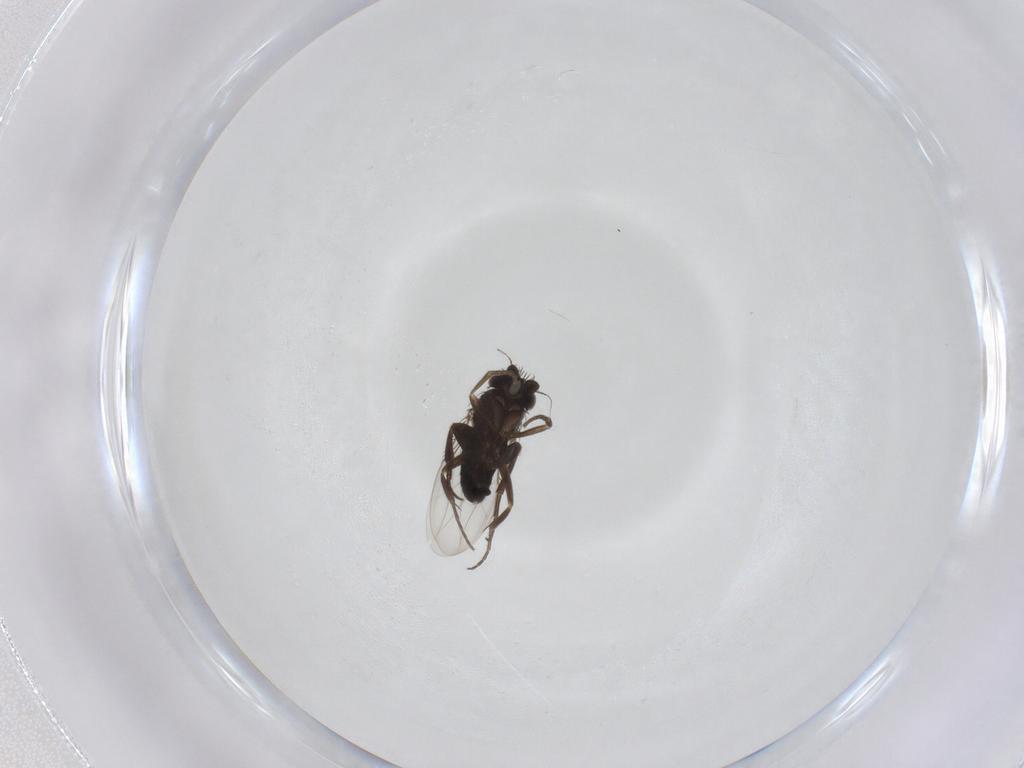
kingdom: Animalia
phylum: Arthropoda
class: Insecta
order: Diptera
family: Phoridae
